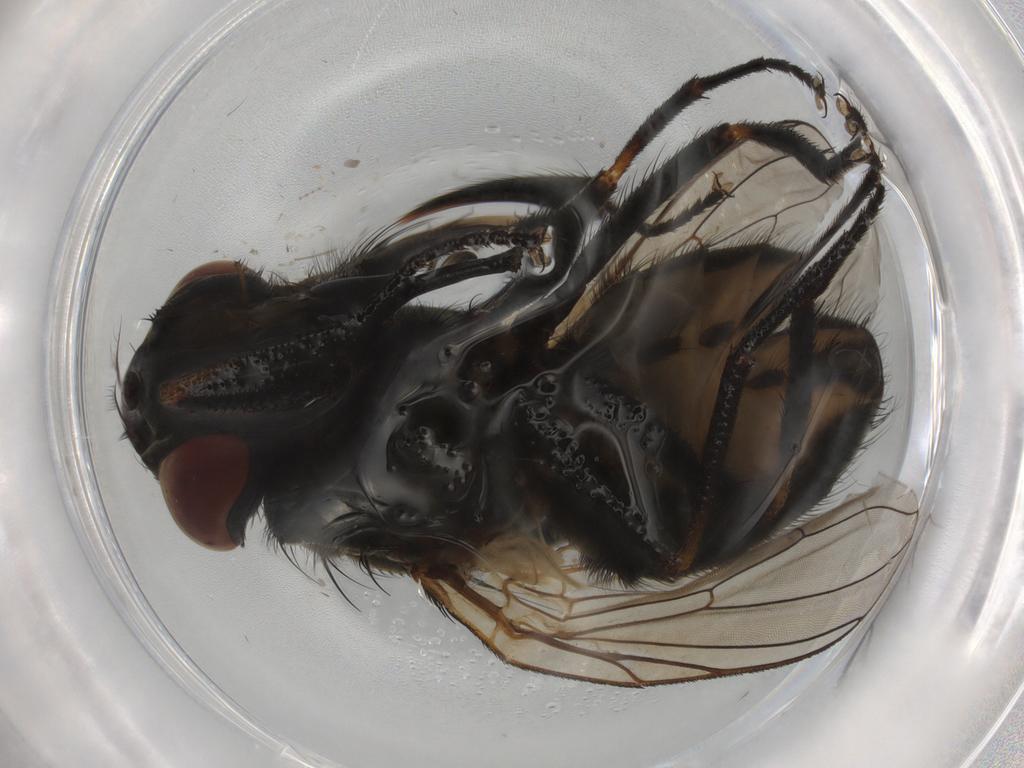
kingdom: Animalia
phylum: Arthropoda
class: Insecta
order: Diptera
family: Muscidae
